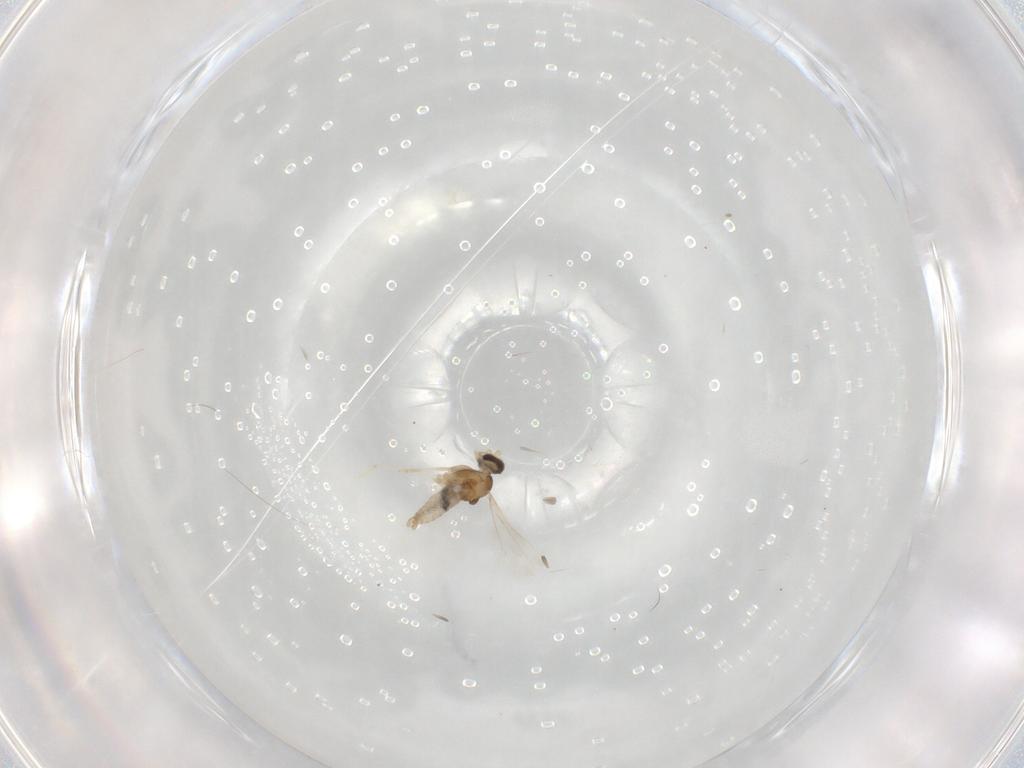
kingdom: Animalia
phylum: Arthropoda
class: Insecta
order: Diptera
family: Cecidomyiidae
